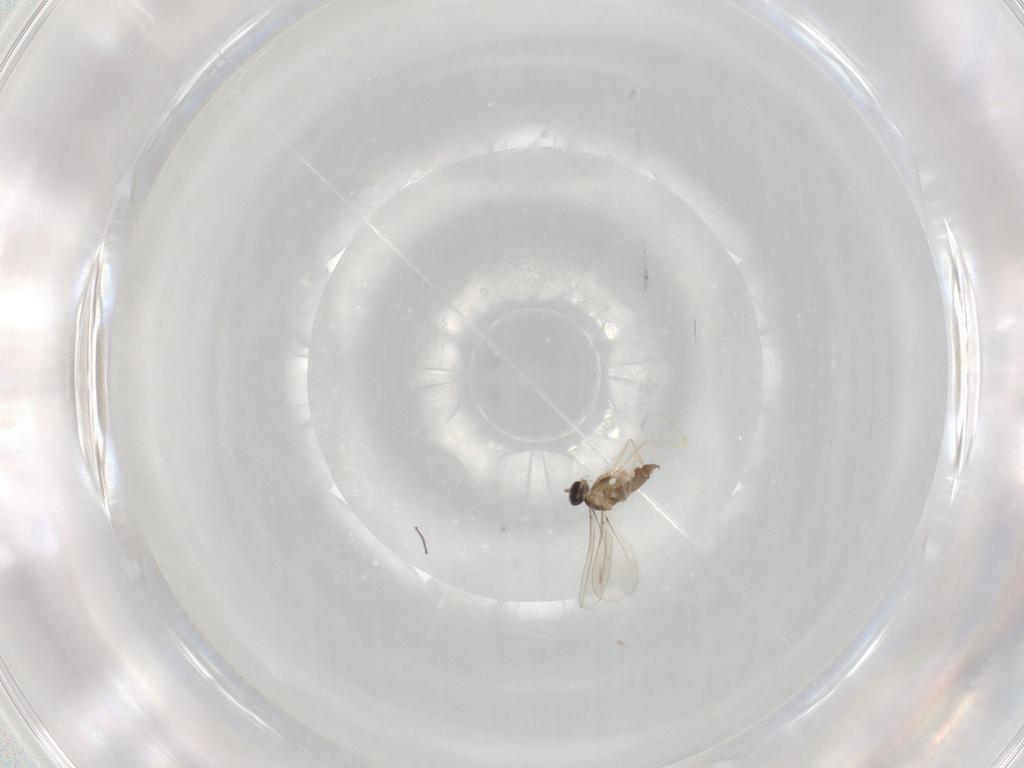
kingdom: Animalia
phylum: Arthropoda
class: Insecta
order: Diptera
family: Cecidomyiidae
